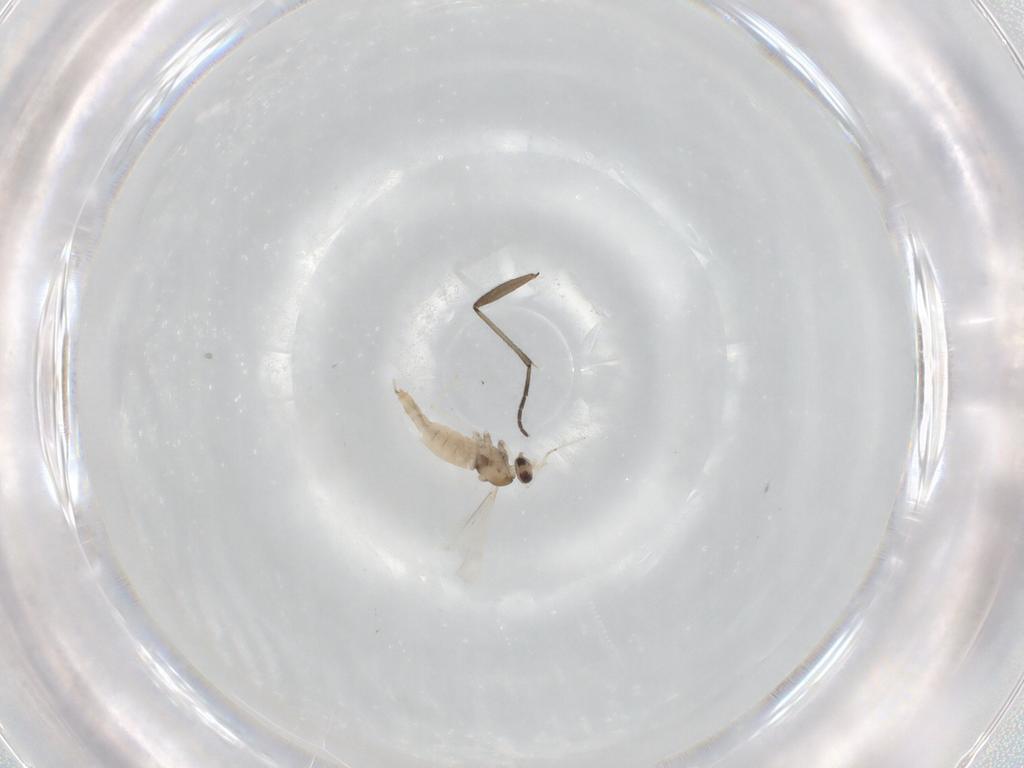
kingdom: Animalia
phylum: Arthropoda
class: Insecta
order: Diptera
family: Cecidomyiidae
